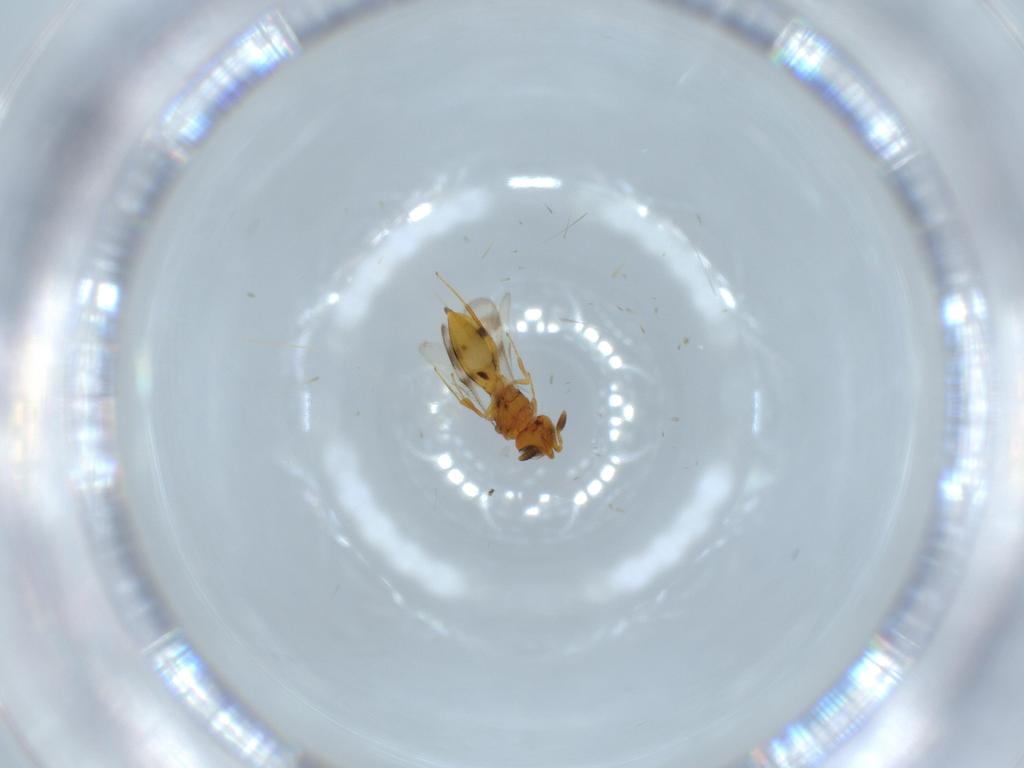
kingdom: Animalia
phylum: Arthropoda
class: Insecta
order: Hymenoptera
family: Scelionidae
